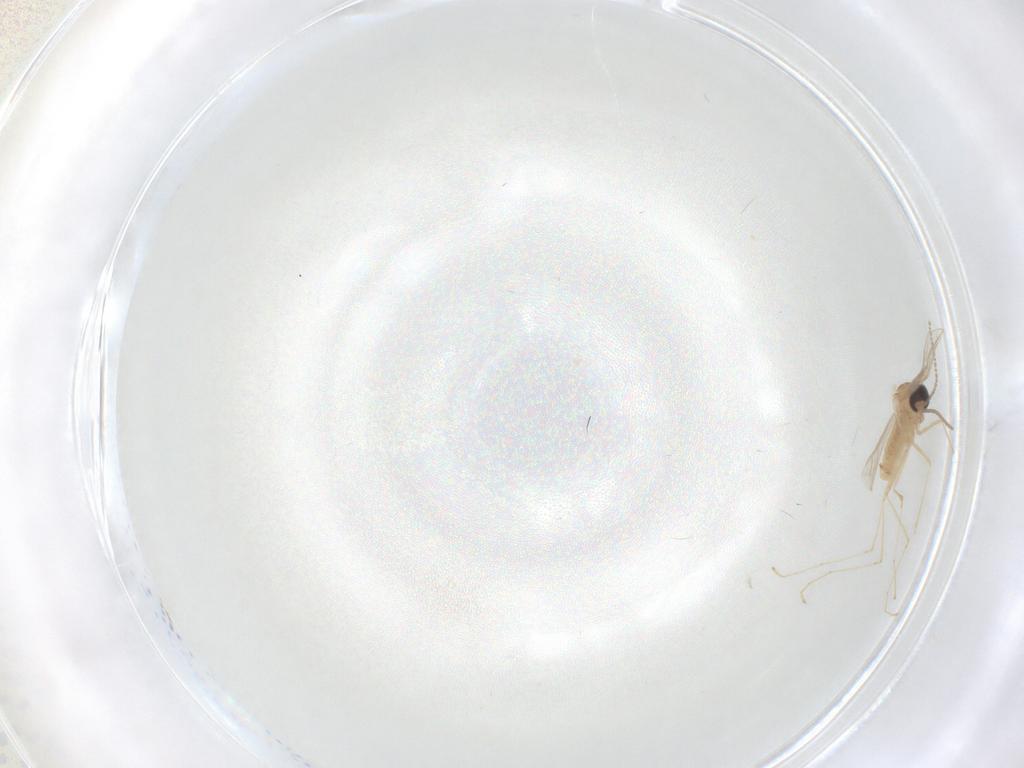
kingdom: Animalia
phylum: Arthropoda
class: Insecta
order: Diptera
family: Cecidomyiidae
